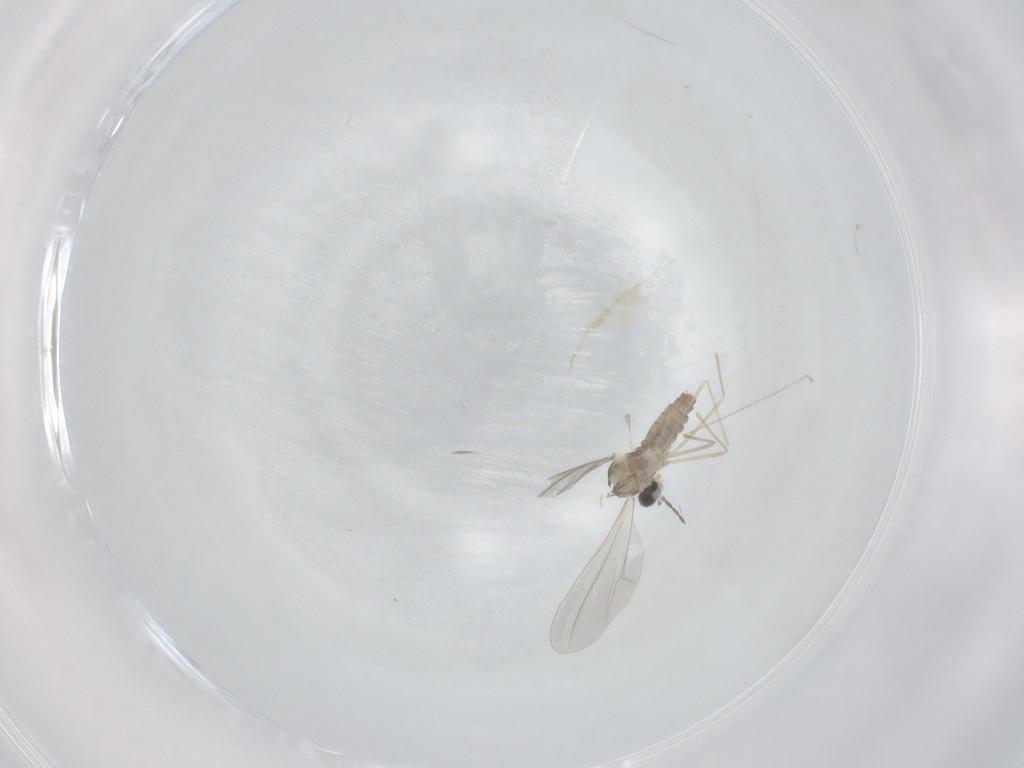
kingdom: Animalia
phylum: Arthropoda
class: Insecta
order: Diptera
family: Cecidomyiidae
